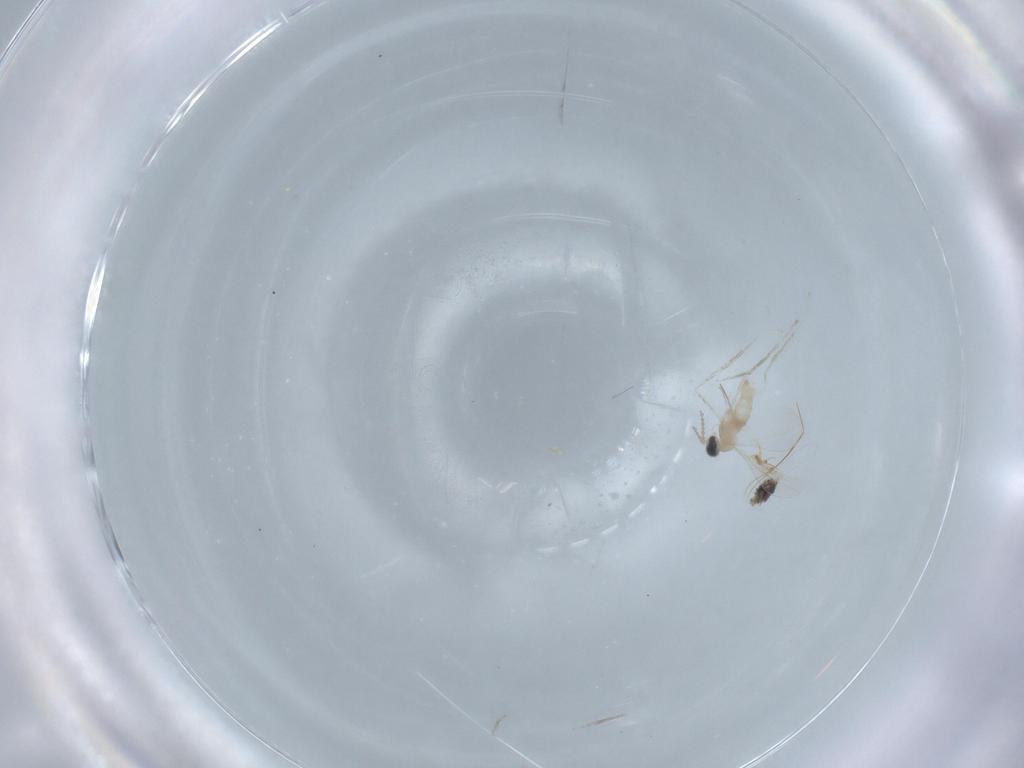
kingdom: Animalia
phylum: Arthropoda
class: Insecta
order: Diptera
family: Cecidomyiidae
